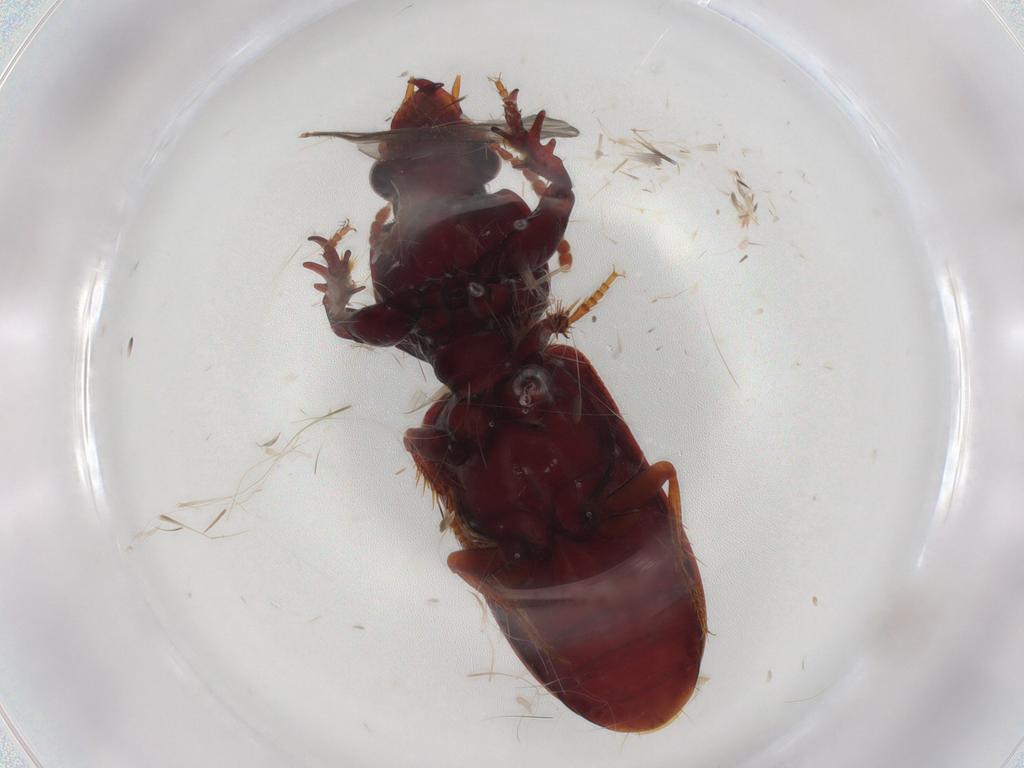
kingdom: Animalia
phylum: Arthropoda
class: Insecta
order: Coleoptera
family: Carabidae
